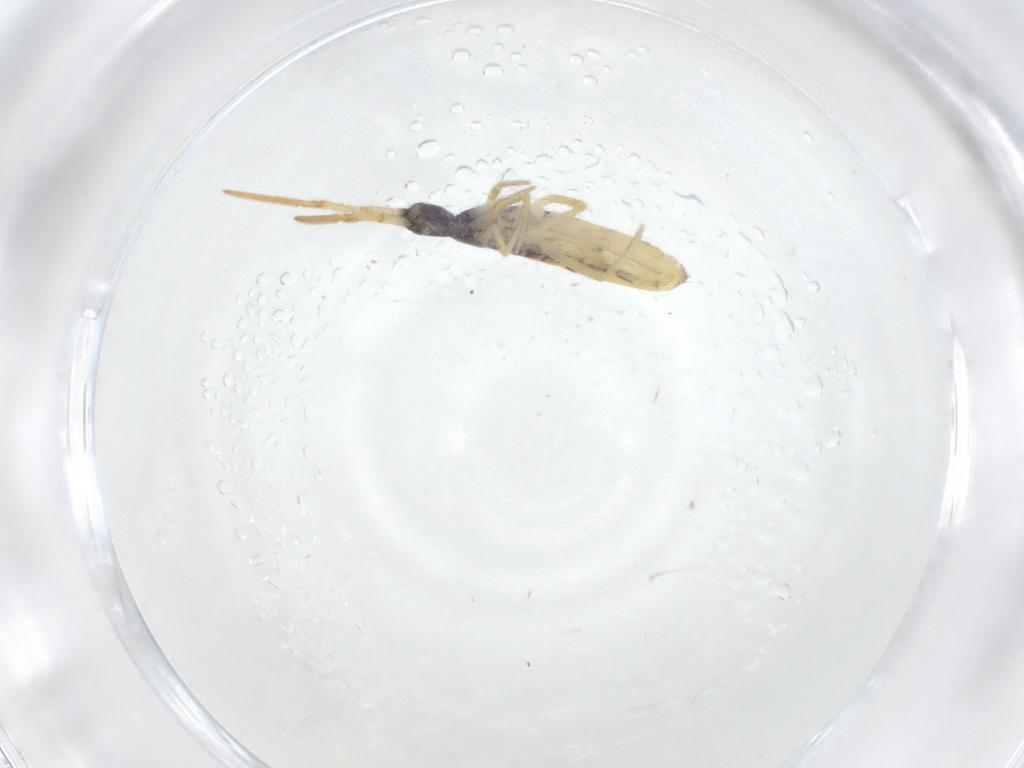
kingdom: Animalia
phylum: Arthropoda
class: Collembola
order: Entomobryomorpha
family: Entomobryidae
